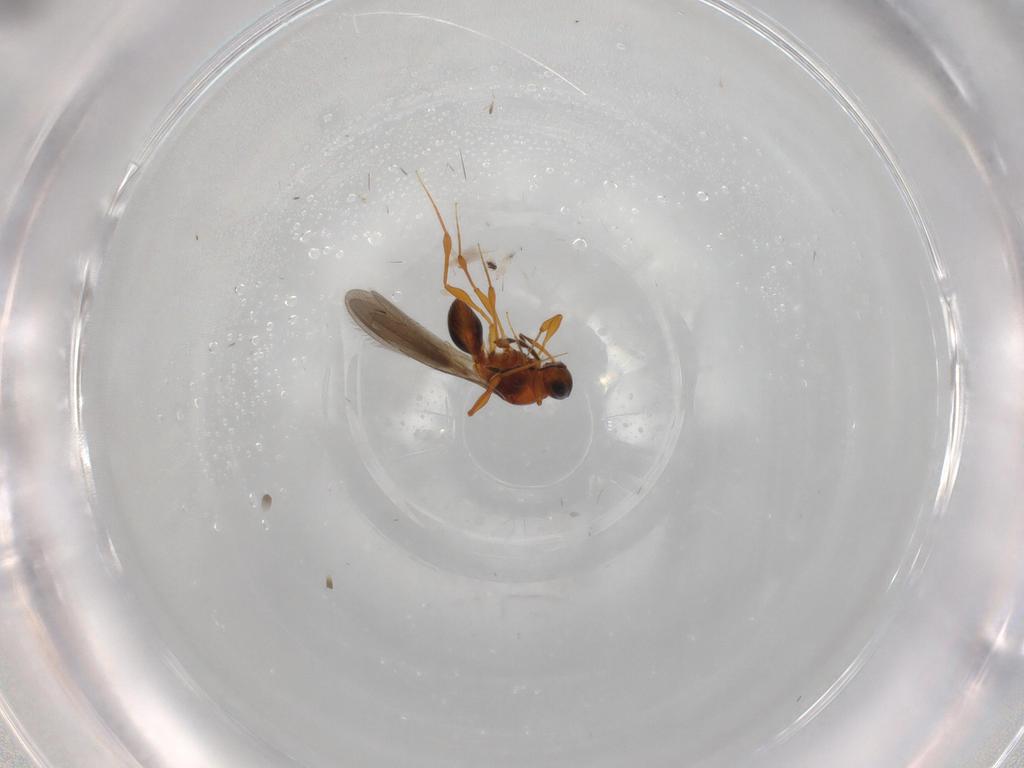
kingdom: Animalia
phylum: Arthropoda
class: Insecta
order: Hymenoptera
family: Platygastridae
